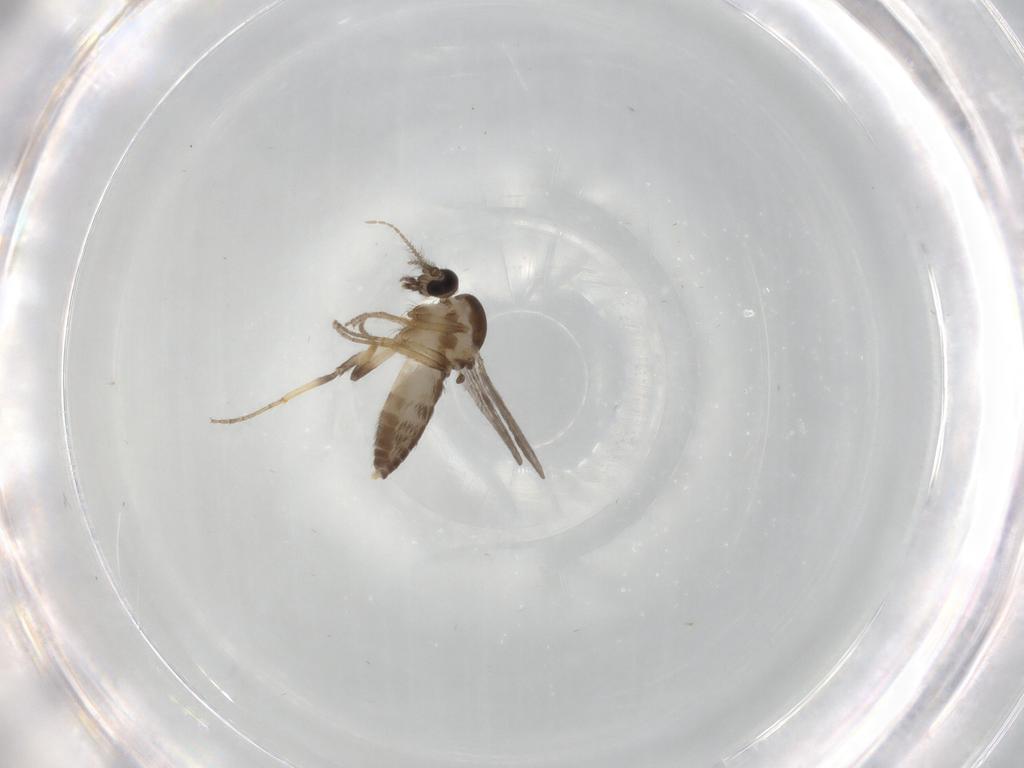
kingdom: Animalia
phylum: Arthropoda
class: Insecta
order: Diptera
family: Ceratopogonidae
